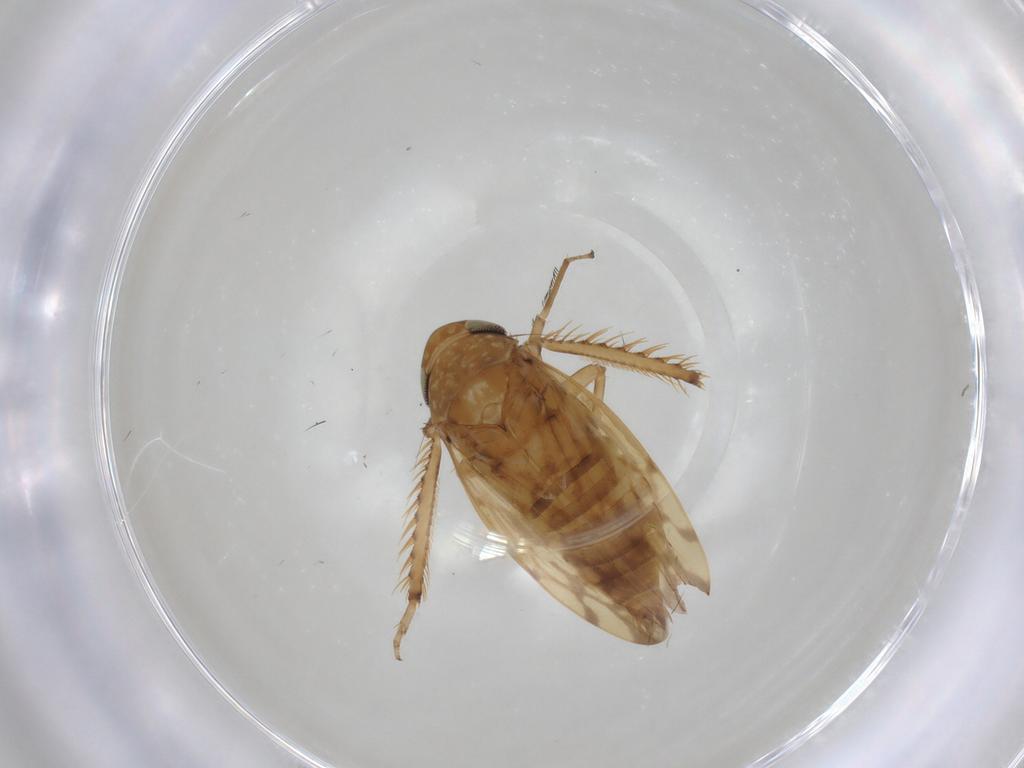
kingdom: Animalia
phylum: Arthropoda
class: Insecta
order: Hemiptera
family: Cicadellidae
